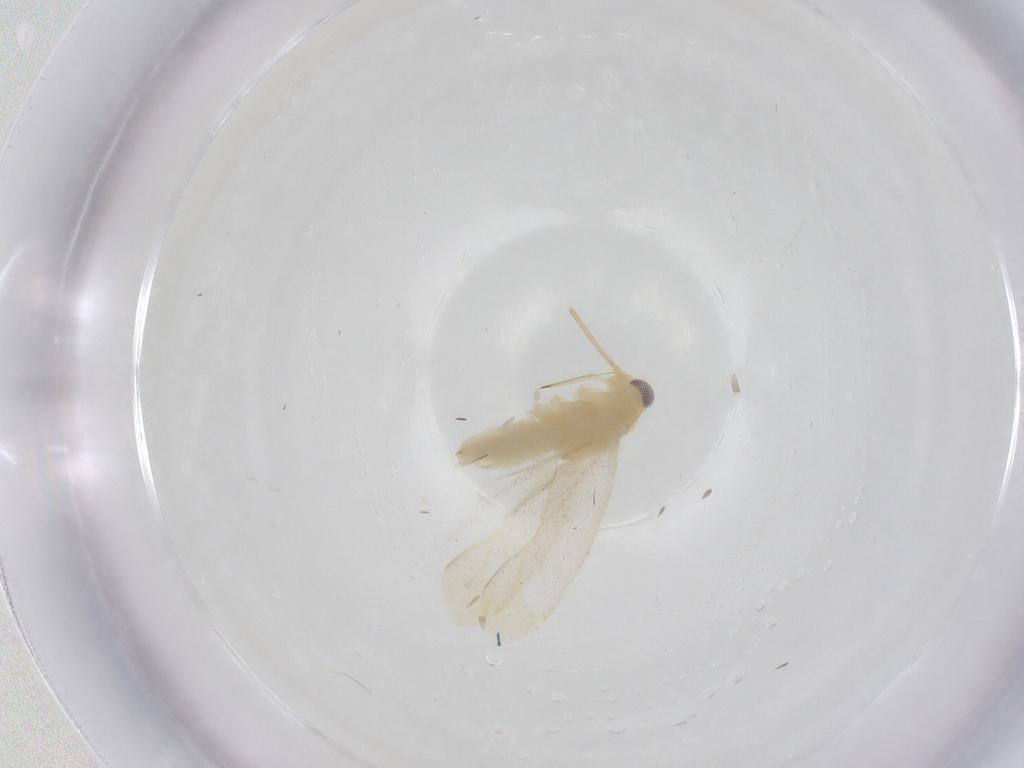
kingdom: Animalia
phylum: Arthropoda
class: Insecta
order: Hemiptera
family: Miridae
